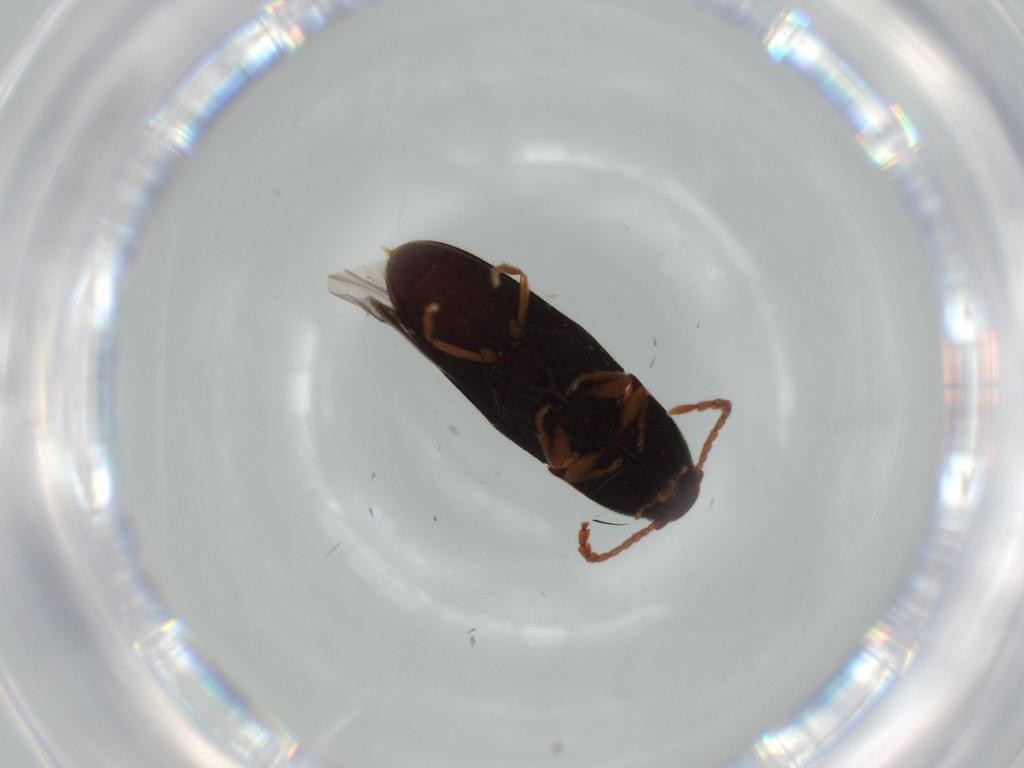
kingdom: Animalia
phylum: Arthropoda
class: Insecta
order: Coleoptera
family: Elateridae
